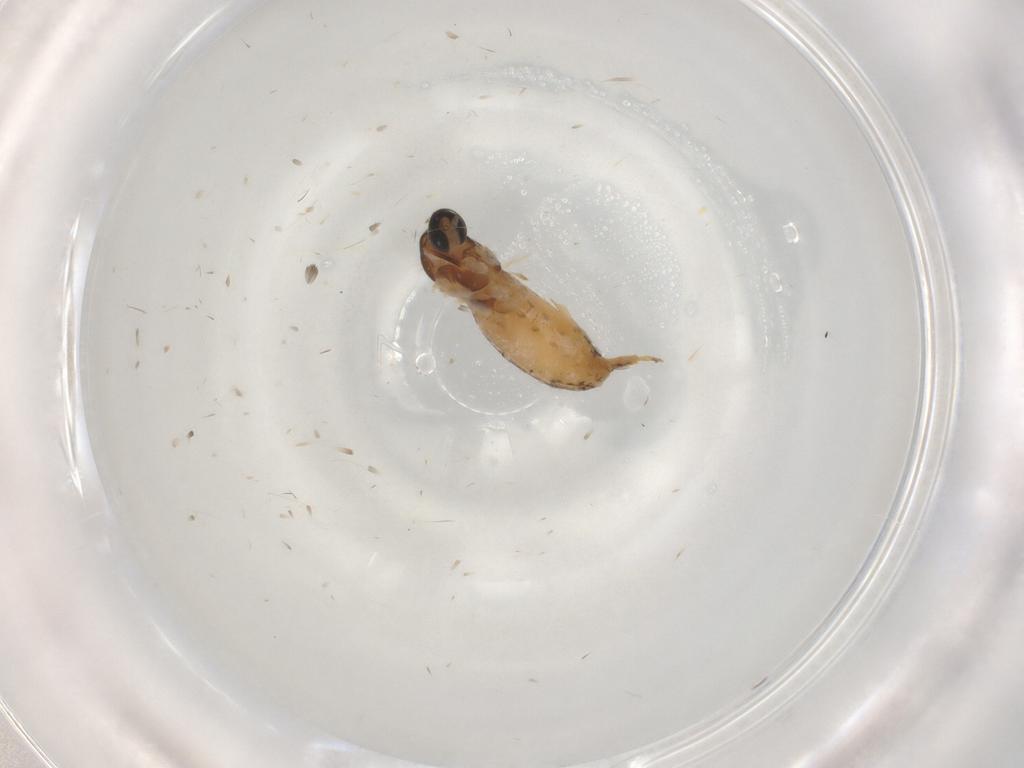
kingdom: Animalia
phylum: Arthropoda
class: Insecta
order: Diptera
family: Cecidomyiidae
